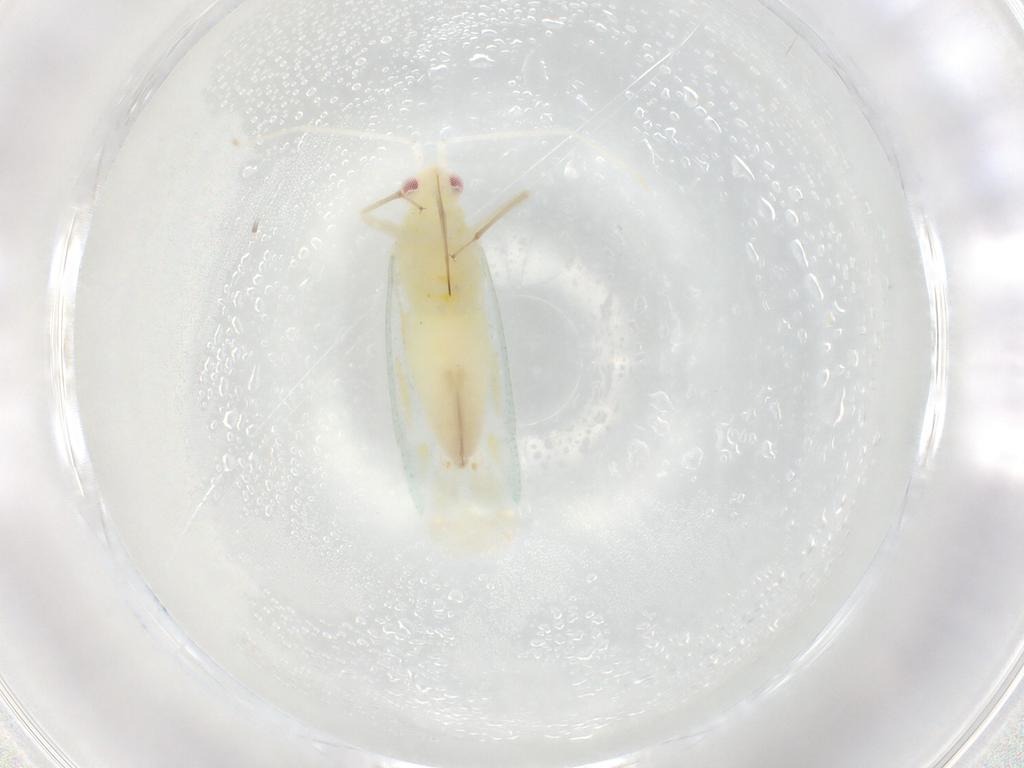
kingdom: Animalia
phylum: Arthropoda
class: Insecta
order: Hemiptera
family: Miridae
